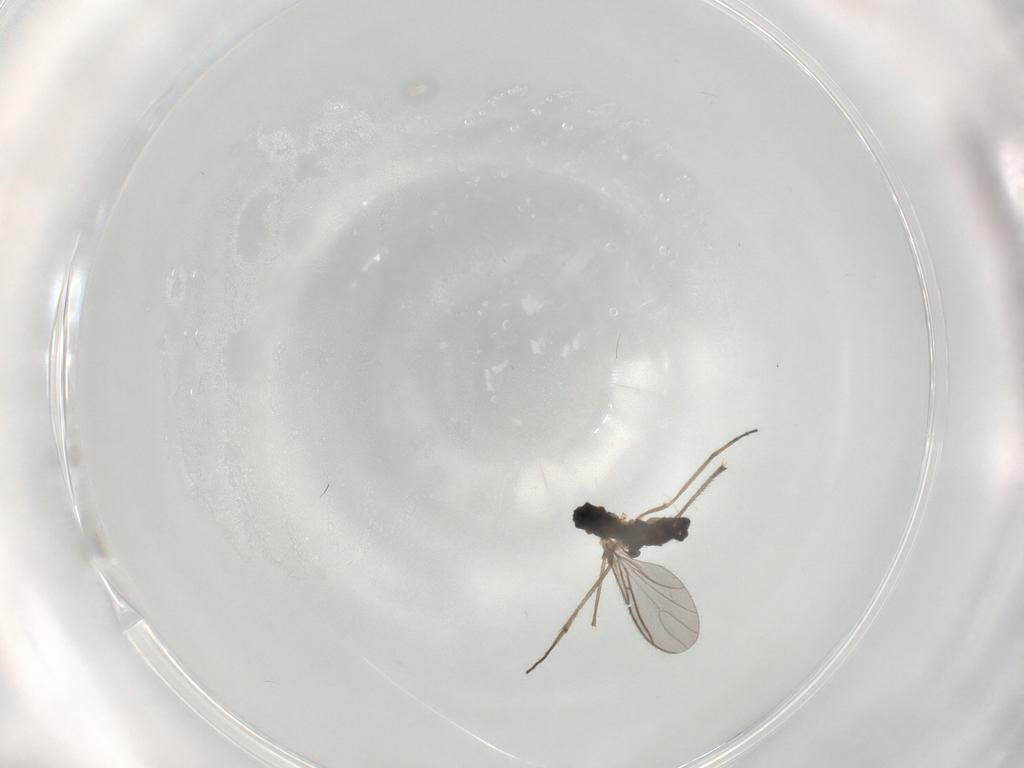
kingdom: Animalia
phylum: Arthropoda
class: Insecta
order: Diptera
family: Sciaridae
